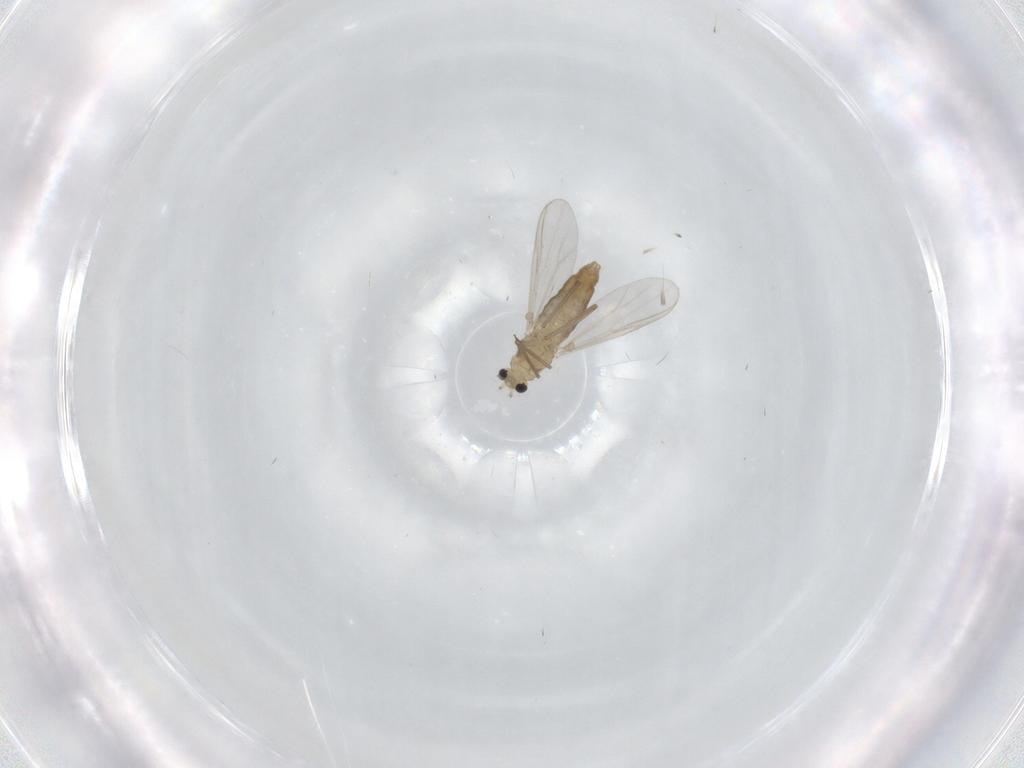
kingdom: Animalia
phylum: Arthropoda
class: Insecta
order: Diptera
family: Chironomidae
